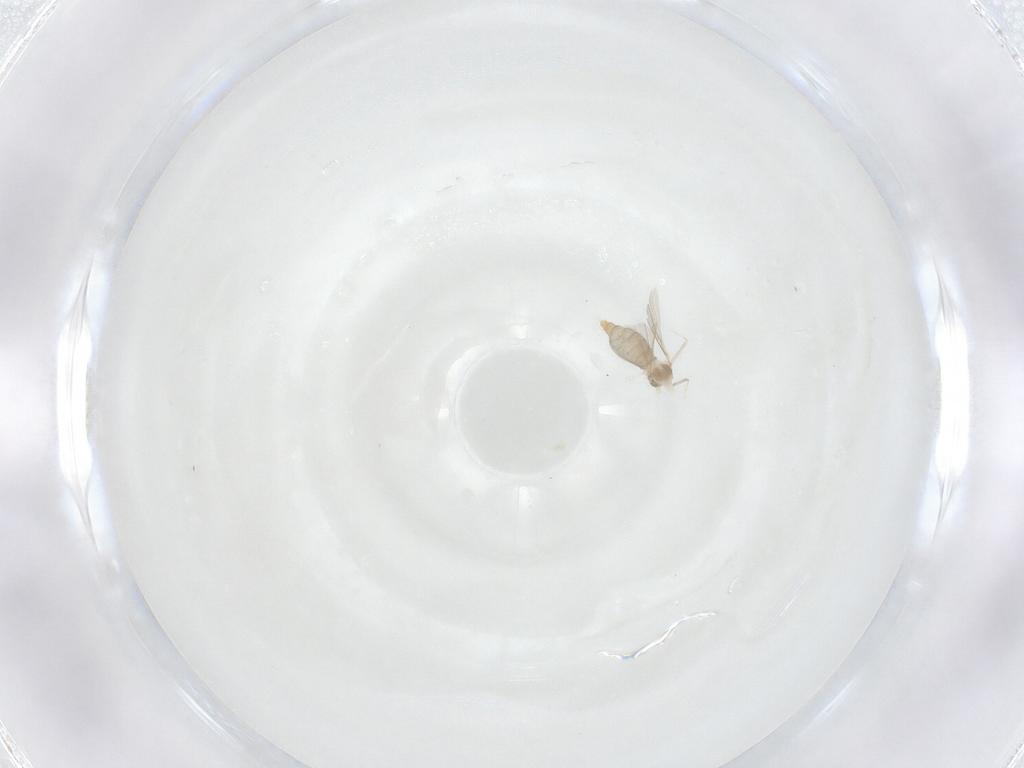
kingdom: Animalia
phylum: Arthropoda
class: Insecta
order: Diptera
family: Cecidomyiidae
